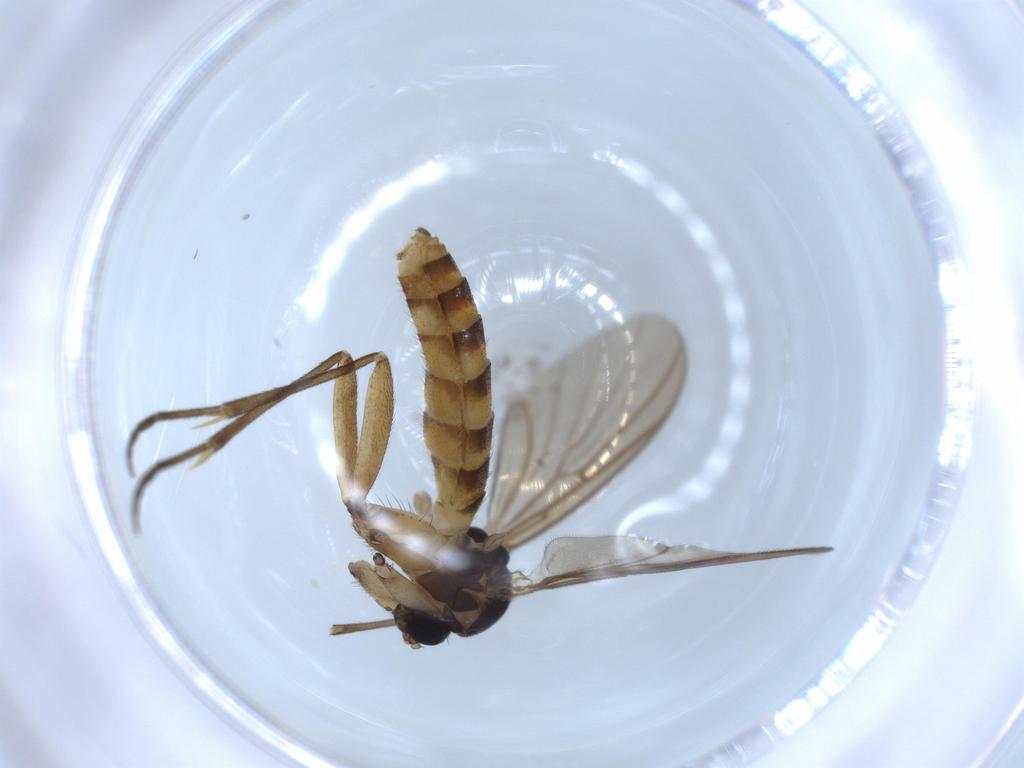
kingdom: Animalia
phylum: Arthropoda
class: Insecta
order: Diptera
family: Mycetophilidae
